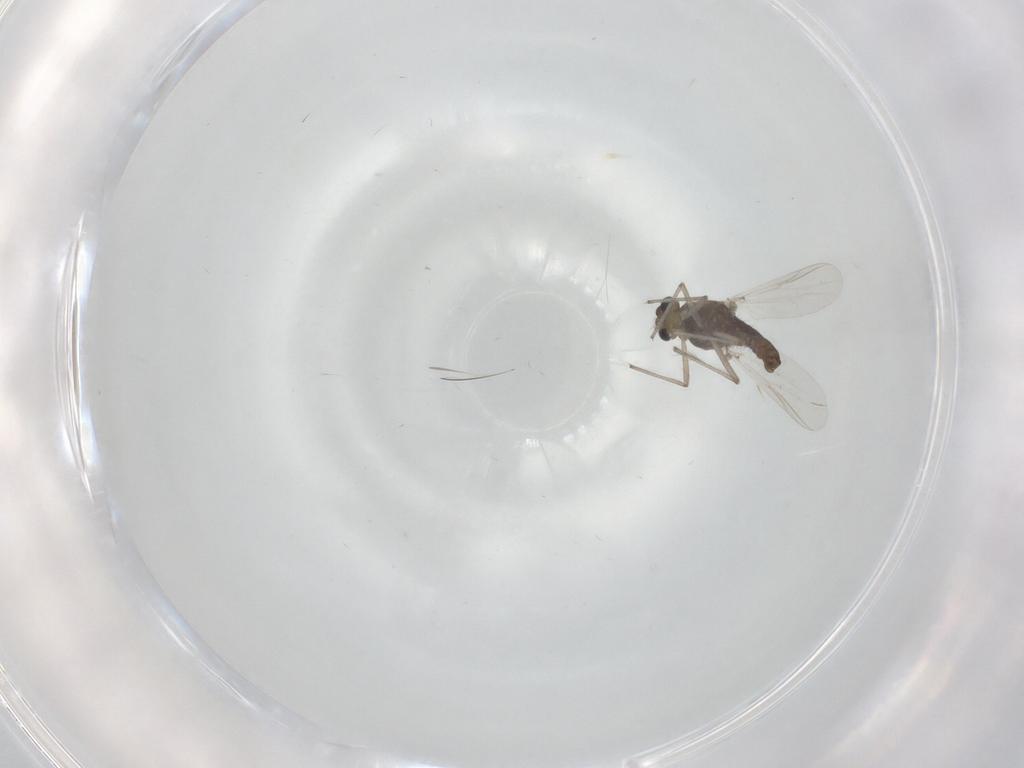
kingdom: Animalia
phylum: Arthropoda
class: Insecta
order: Diptera
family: Chironomidae
